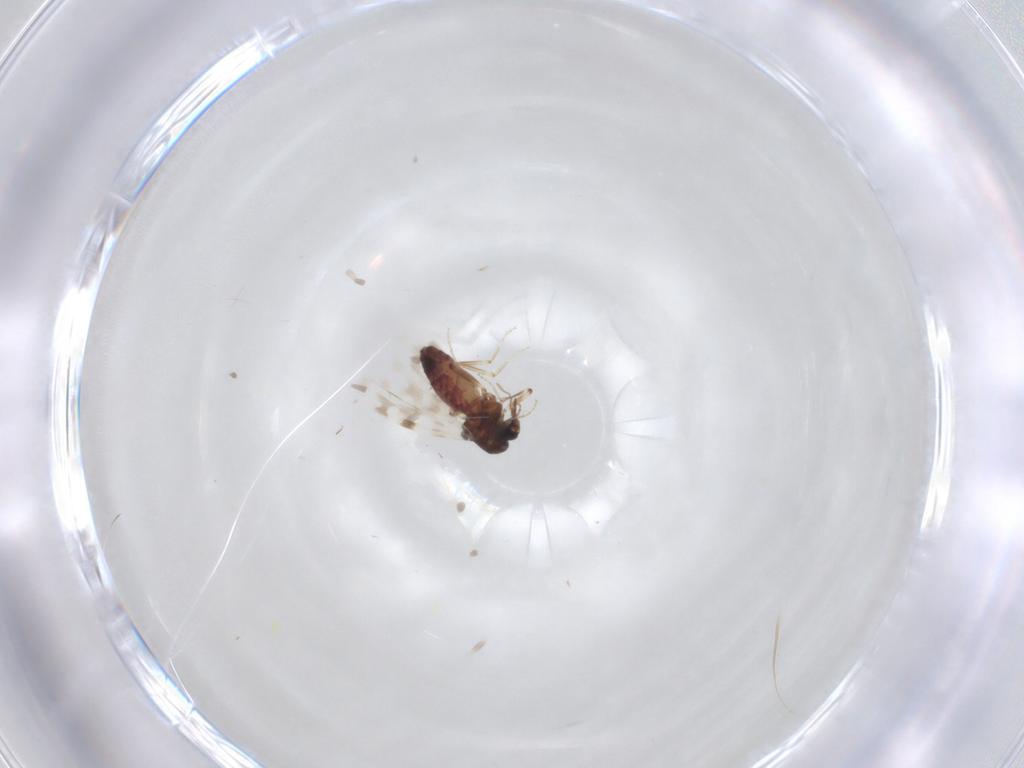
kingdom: Animalia
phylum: Arthropoda
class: Insecta
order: Diptera
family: Ceratopogonidae
